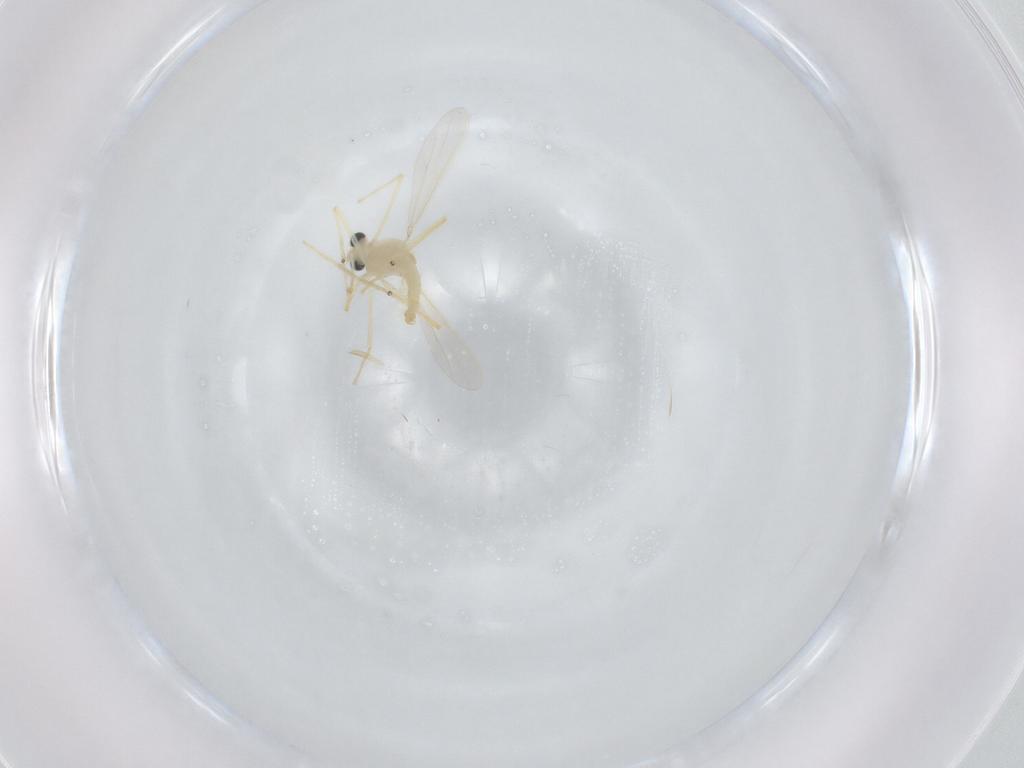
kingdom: Animalia
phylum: Arthropoda
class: Insecta
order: Diptera
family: Chironomidae
